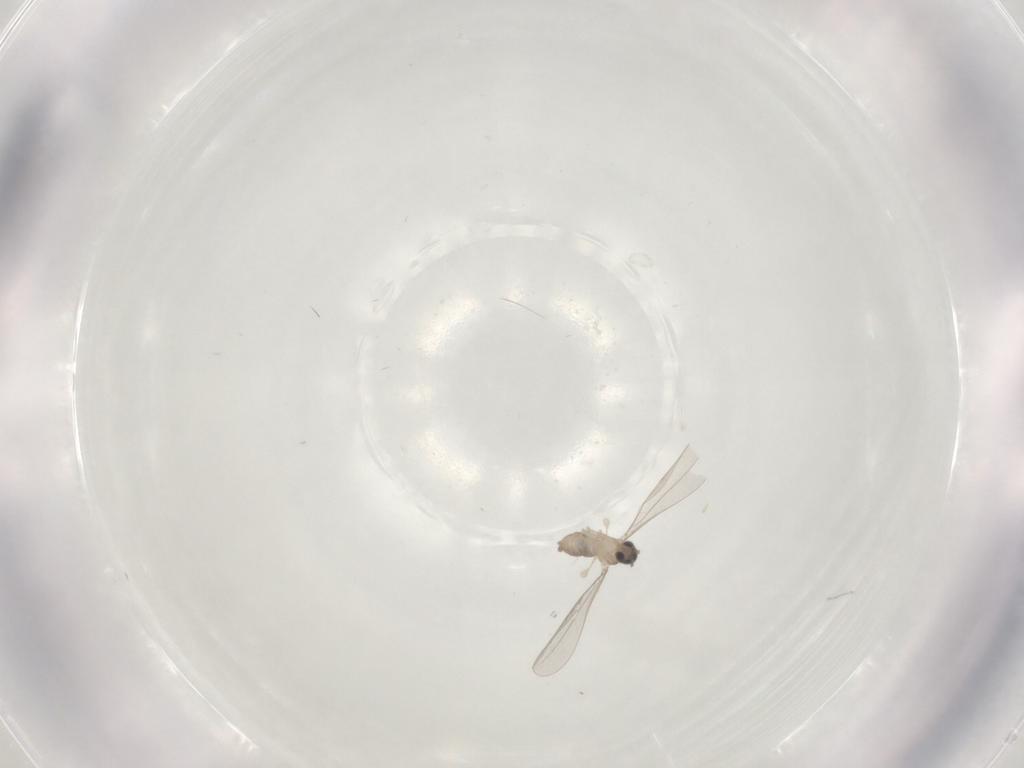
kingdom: Animalia
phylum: Arthropoda
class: Insecta
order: Diptera
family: Cecidomyiidae
